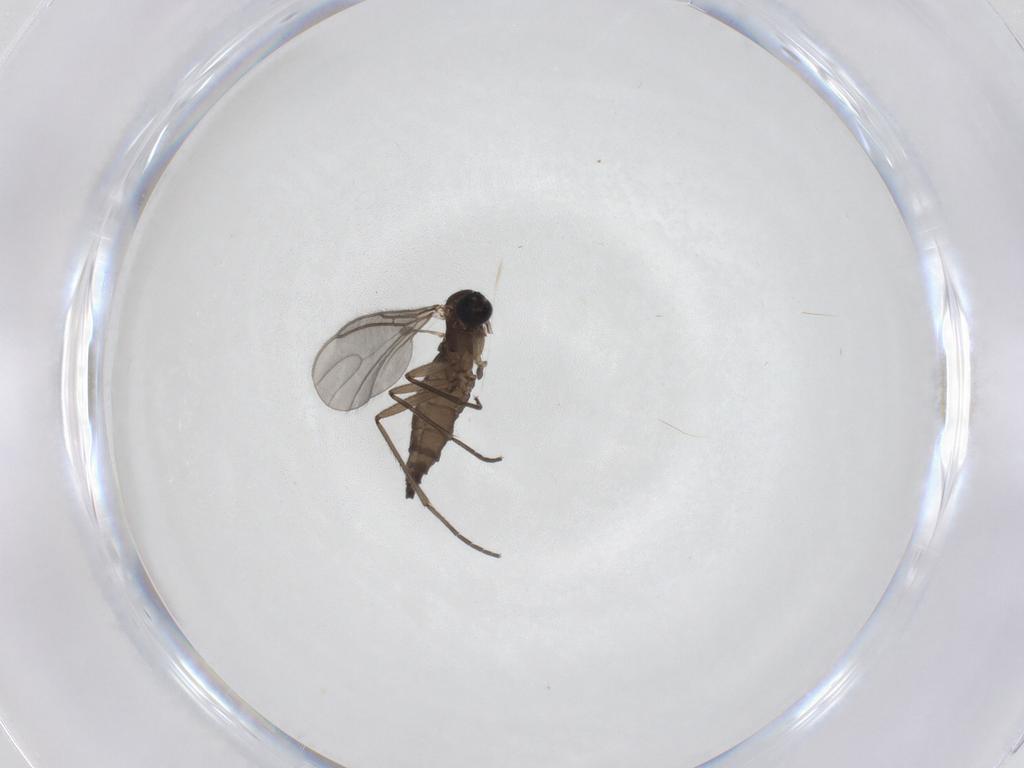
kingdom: Animalia
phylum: Arthropoda
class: Insecta
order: Diptera
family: Sciaridae
